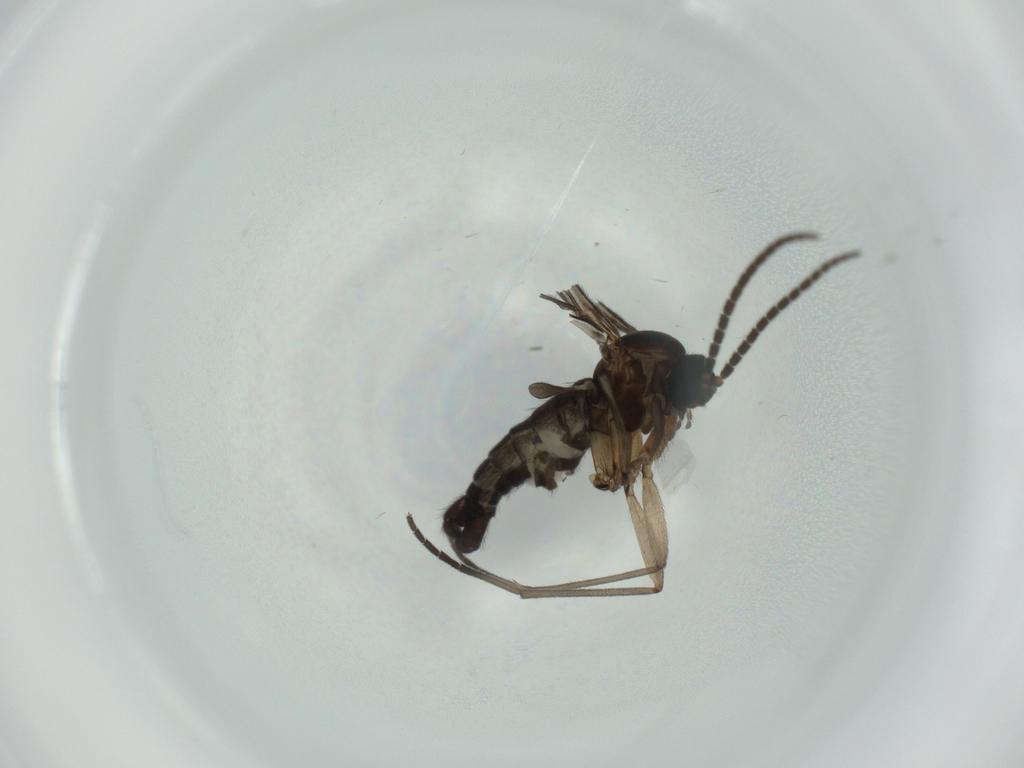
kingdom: Animalia
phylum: Arthropoda
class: Insecta
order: Diptera
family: Sciaridae
